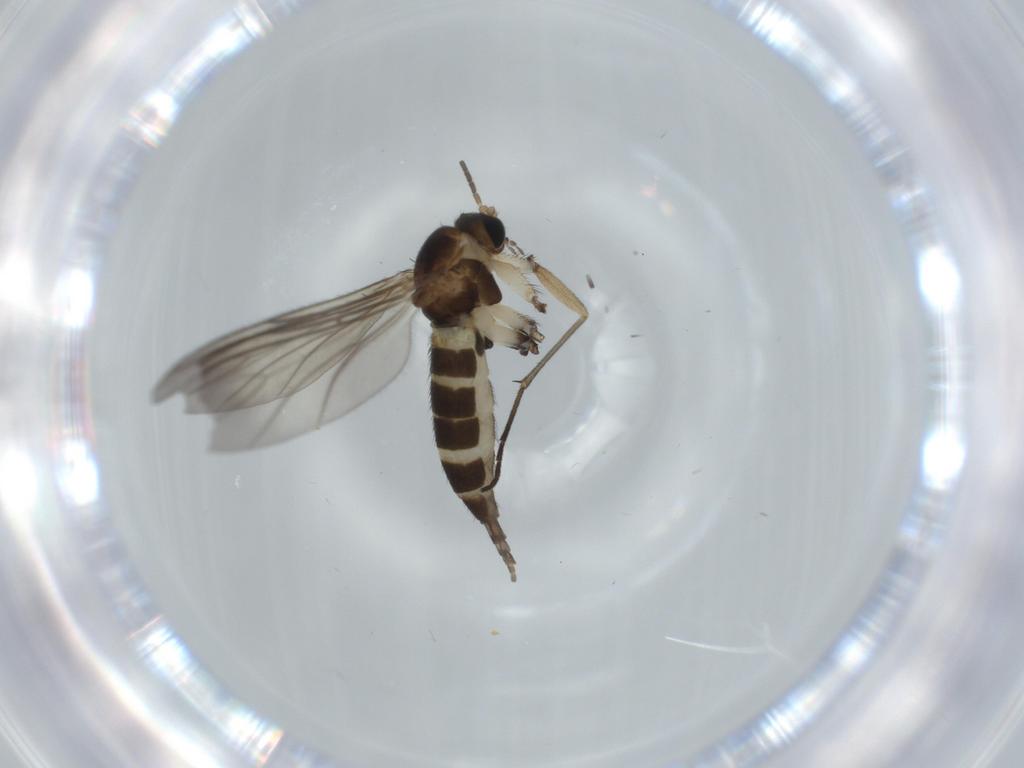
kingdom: Animalia
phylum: Arthropoda
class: Insecta
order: Diptera
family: Sciaridae
